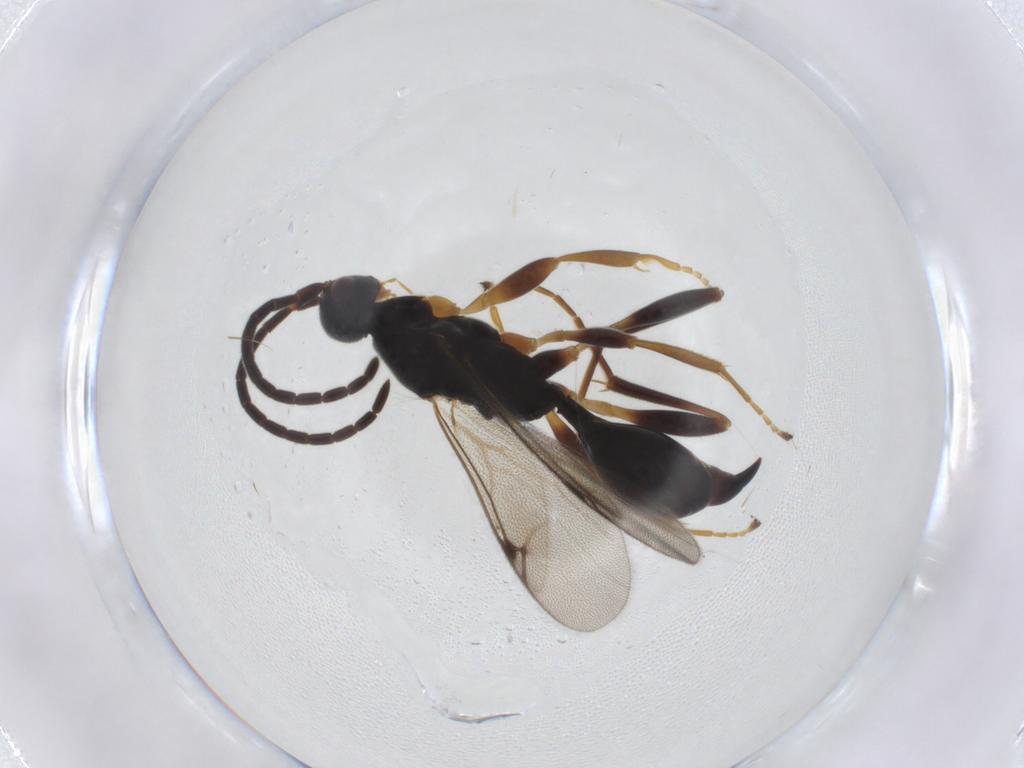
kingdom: Animalia
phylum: Arthropoda
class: Insecta
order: Hymenoptera
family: Proctotrupidae
